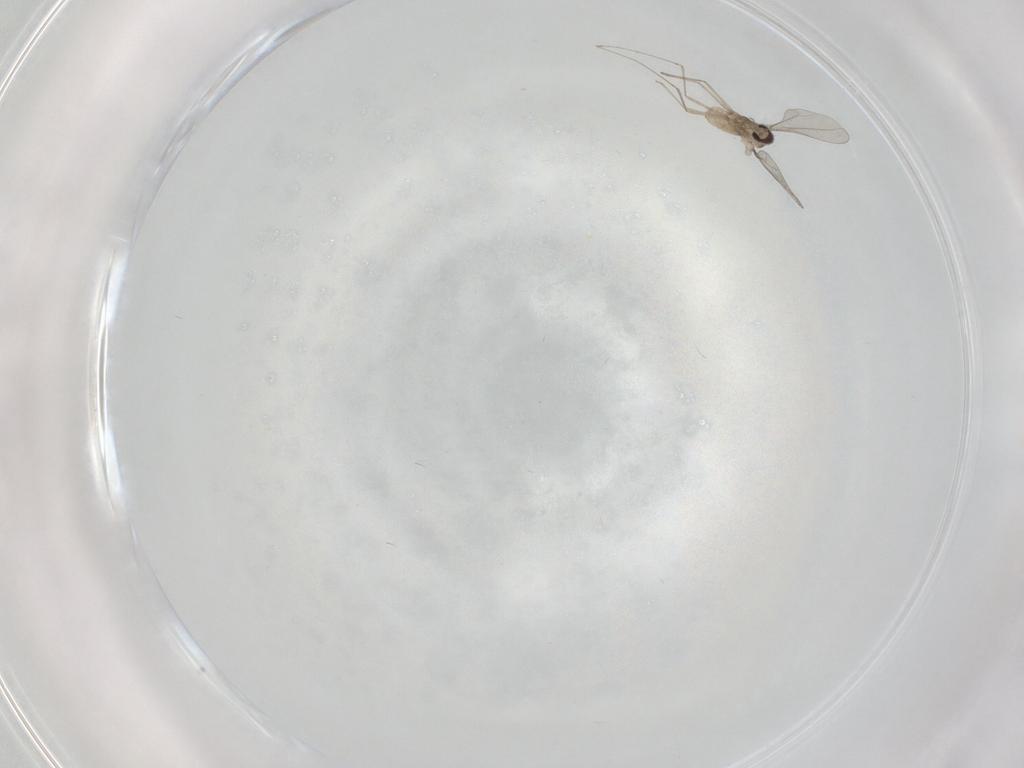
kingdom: Animalia
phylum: Arthropoda
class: Insecta
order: Diptera
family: Cecidomyiidae
